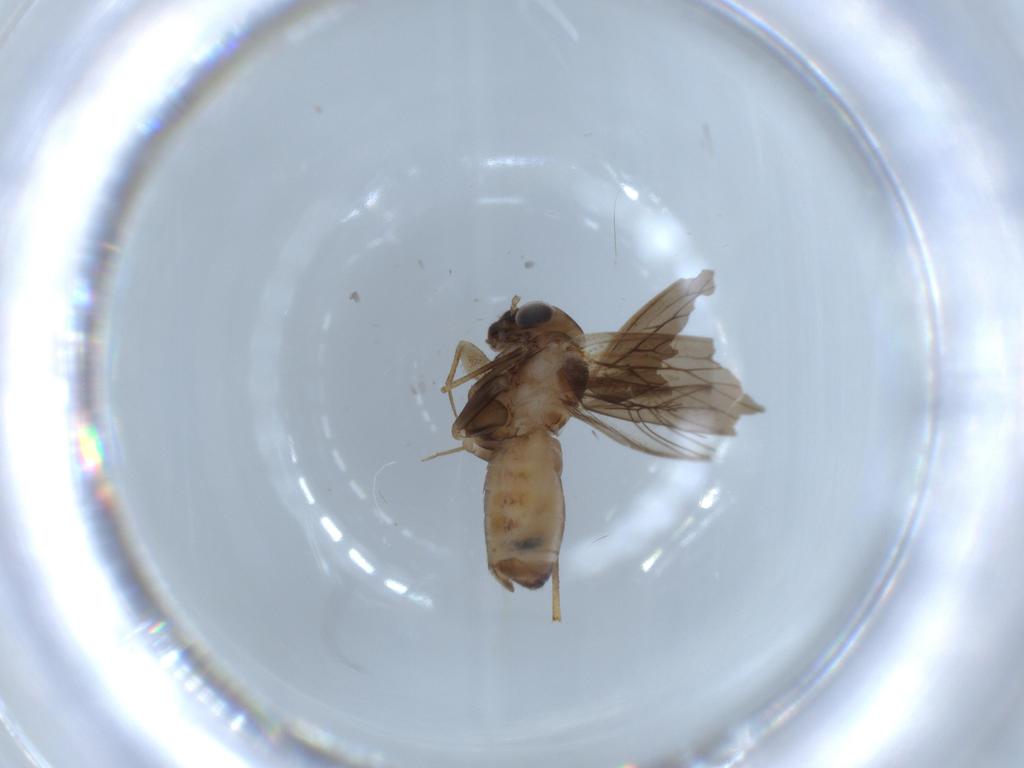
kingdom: Animalia
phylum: Arthropoda
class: Insecta
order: Psocodea
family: Lepidopsocidae
